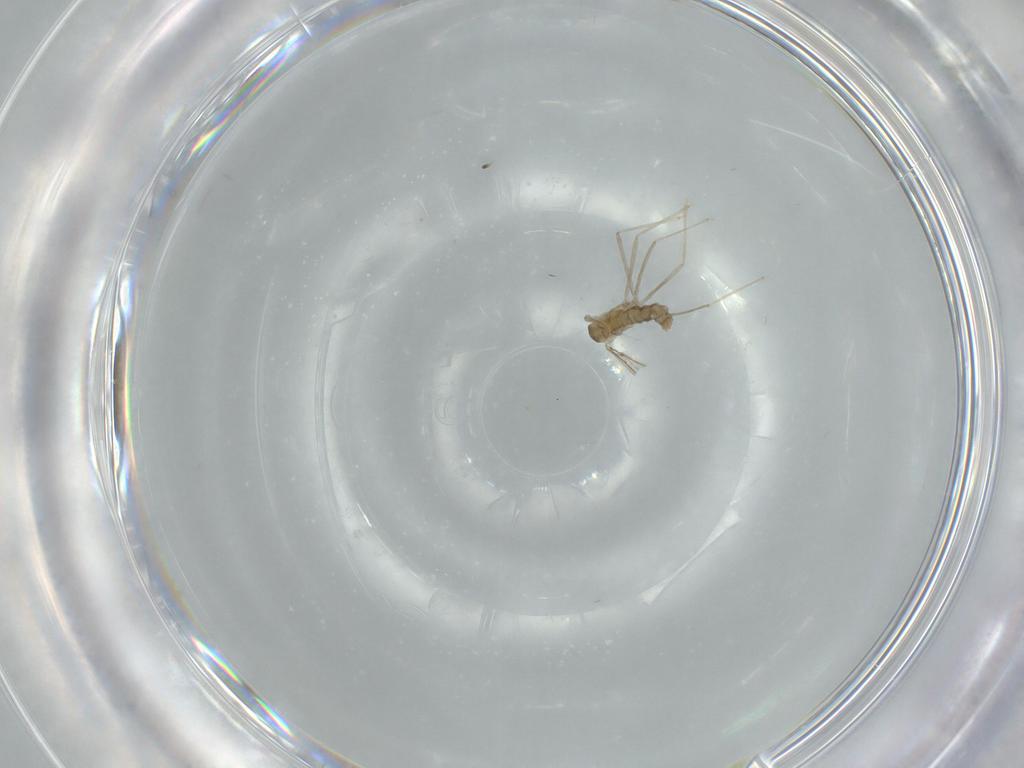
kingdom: Animalia
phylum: Arthropoda
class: Insecta
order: Diptera
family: Cecidomyiidae
